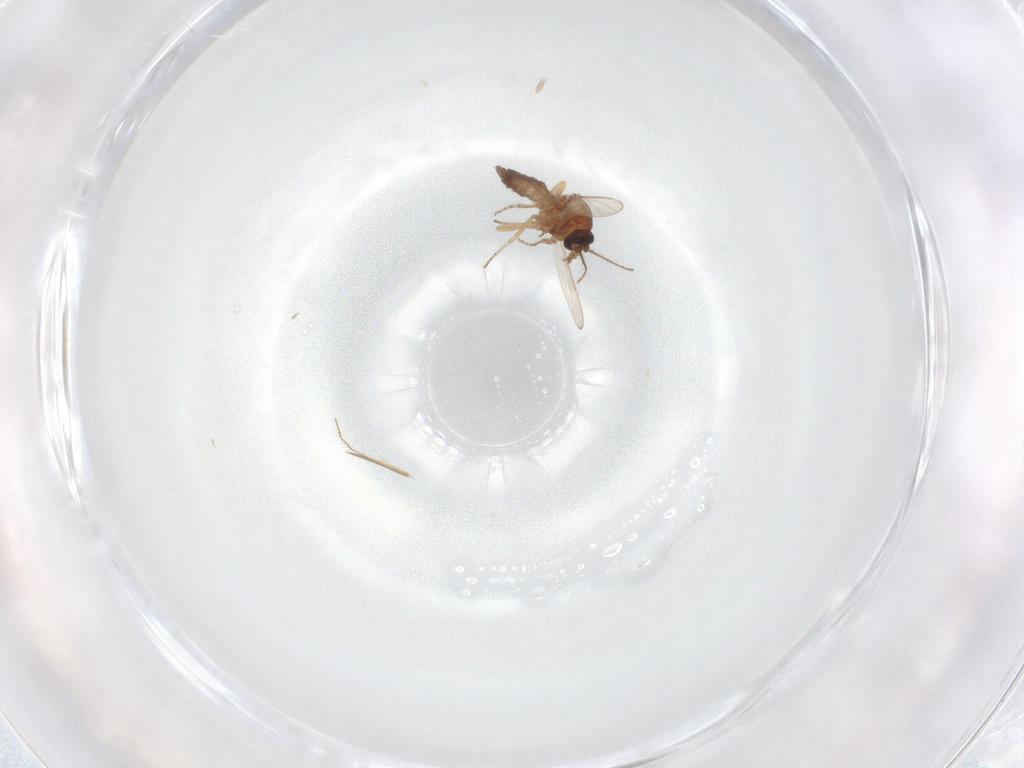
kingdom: Animalia
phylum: Arthropoda
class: Insecta
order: Diptera
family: Ceratopogonidae
